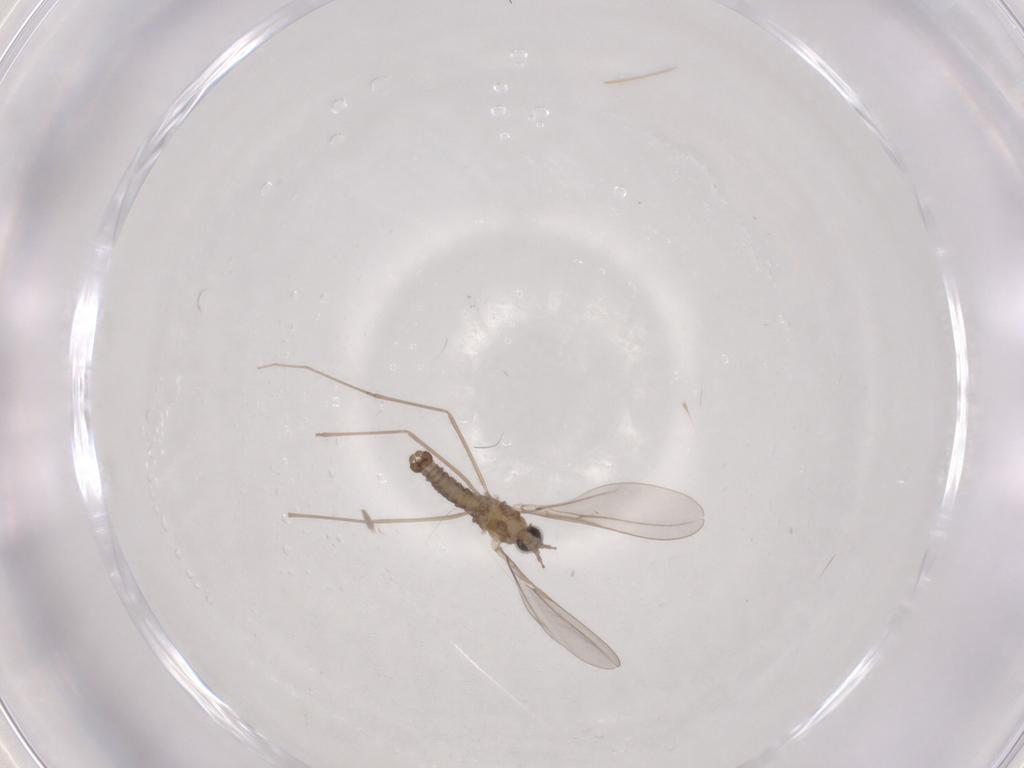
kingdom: Animalia
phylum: Arthropoda
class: Insecta
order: Diptera
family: Cecidomyiidae
